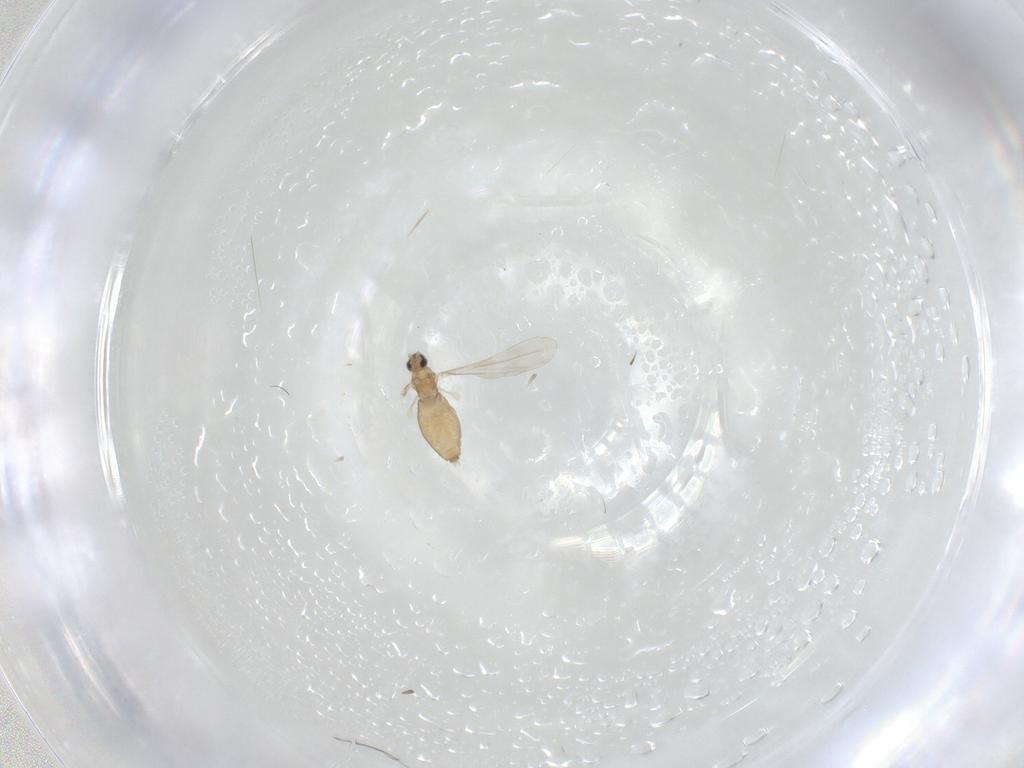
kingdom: Animalia
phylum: Arthropoda
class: Insecta
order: Diptera
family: Cecidomyiidae
